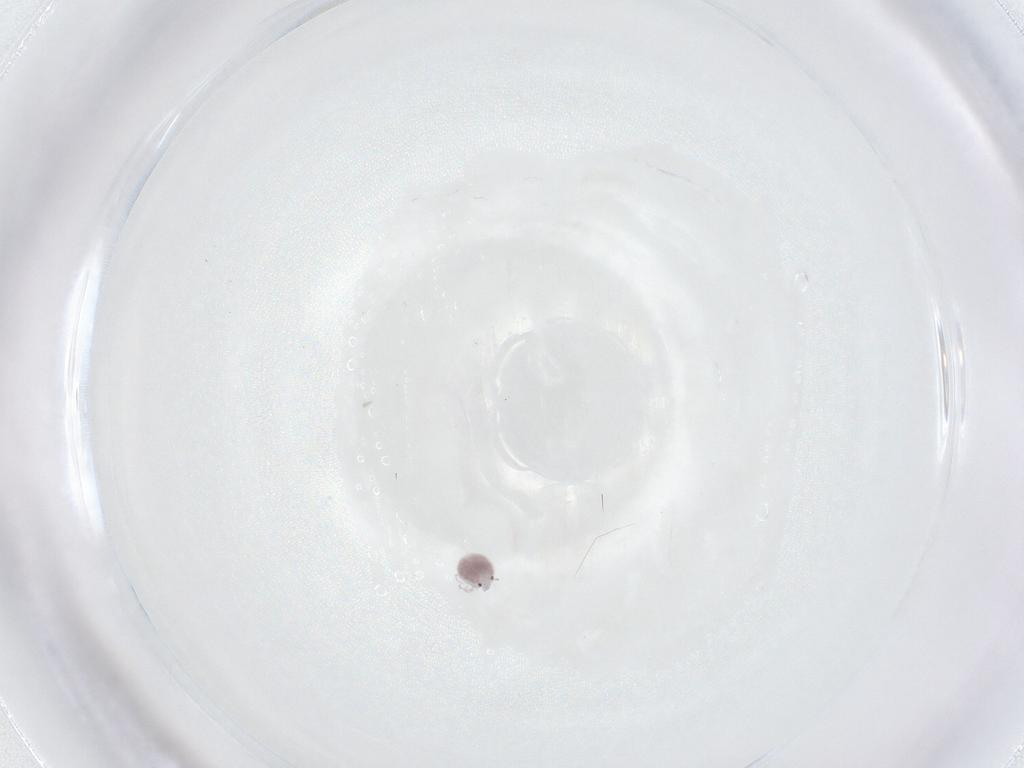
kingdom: Animalia
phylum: Arthropoda
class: Arachnida
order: Trombidiformes
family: Pionidae
